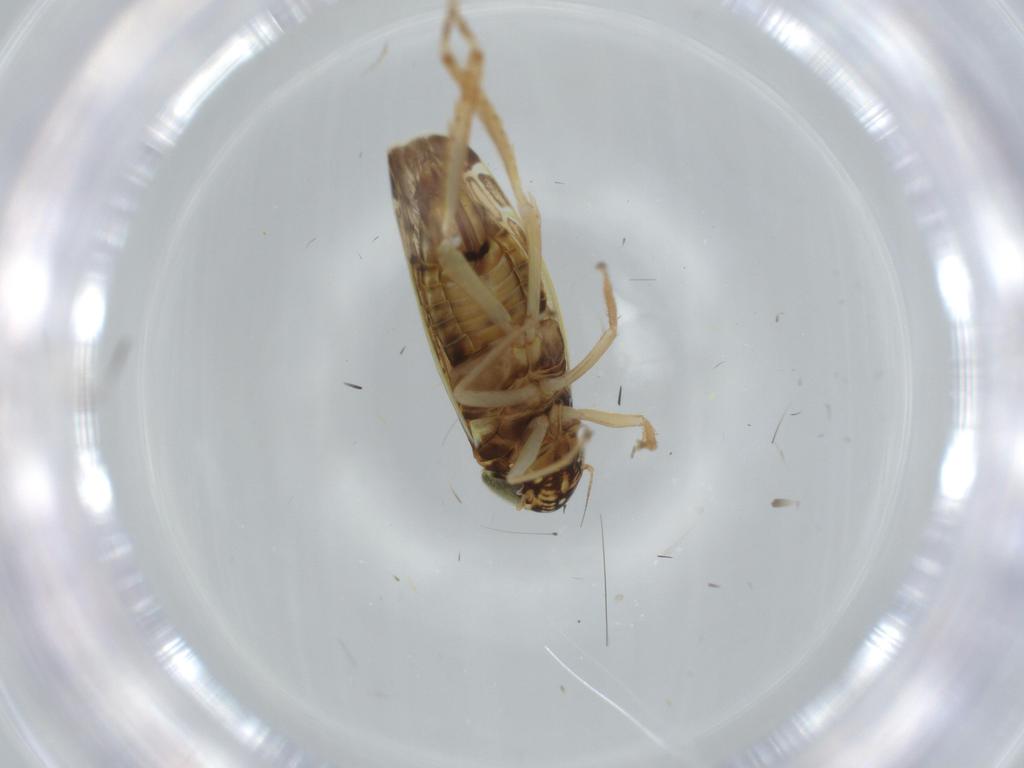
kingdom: Animalia
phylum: Arthropoda
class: Insecta
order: Hemiptera
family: Cicadellidae
